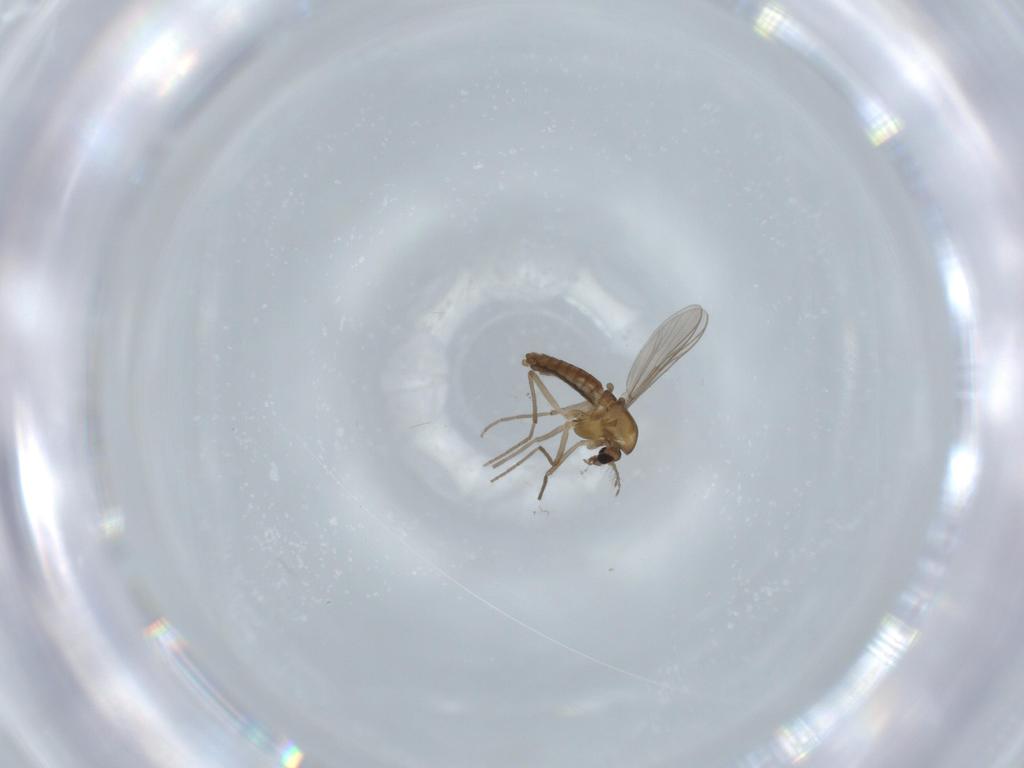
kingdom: Animalia
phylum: Arthropoda
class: Insecta
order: Diptera
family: Chironomidae
